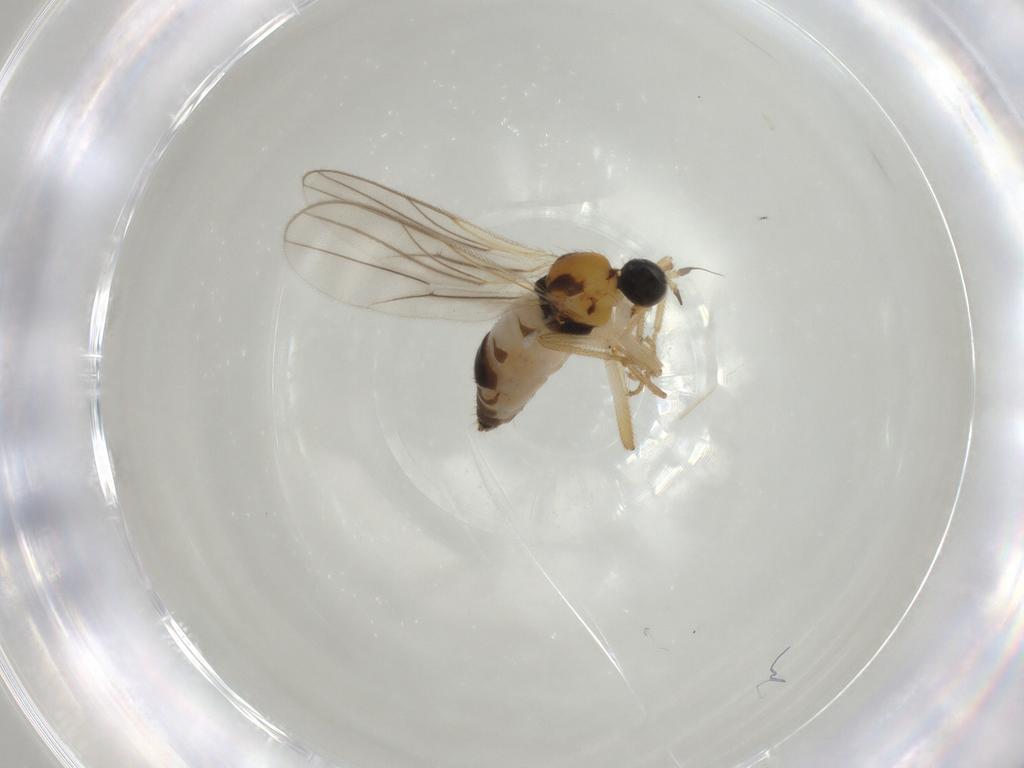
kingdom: Animalia
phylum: Arthropoda
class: Insecta
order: Diptera
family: Hybotidae
